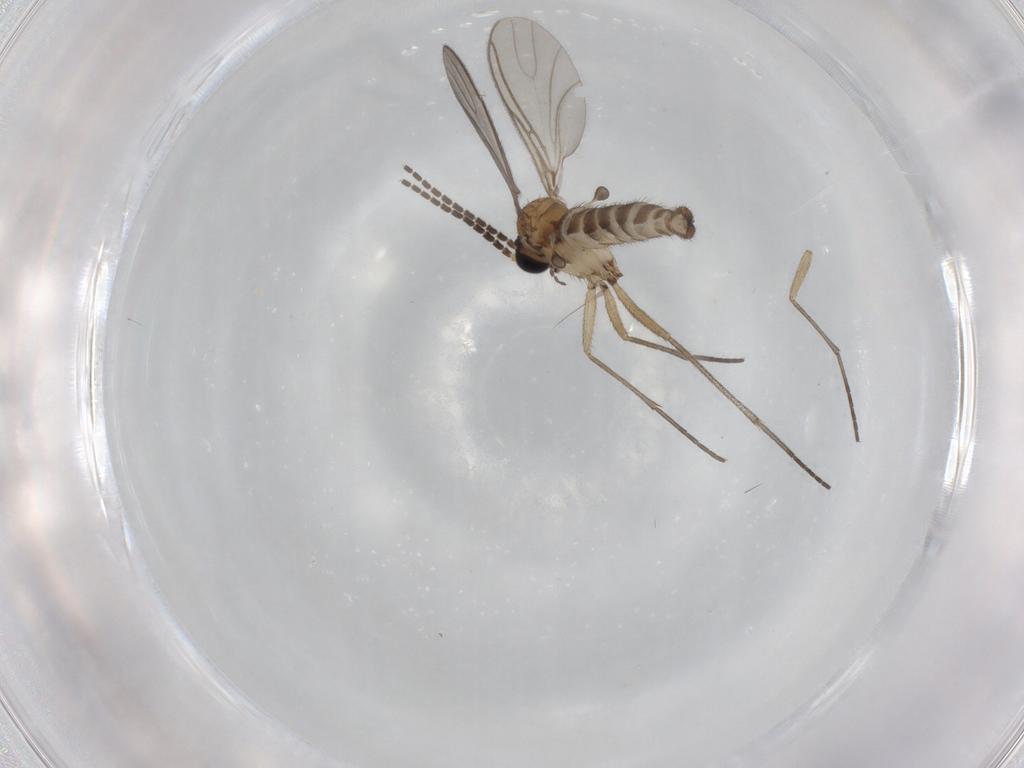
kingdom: Animalia
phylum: Arthropoda
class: Insecta
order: Diptera
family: Sciaridae
